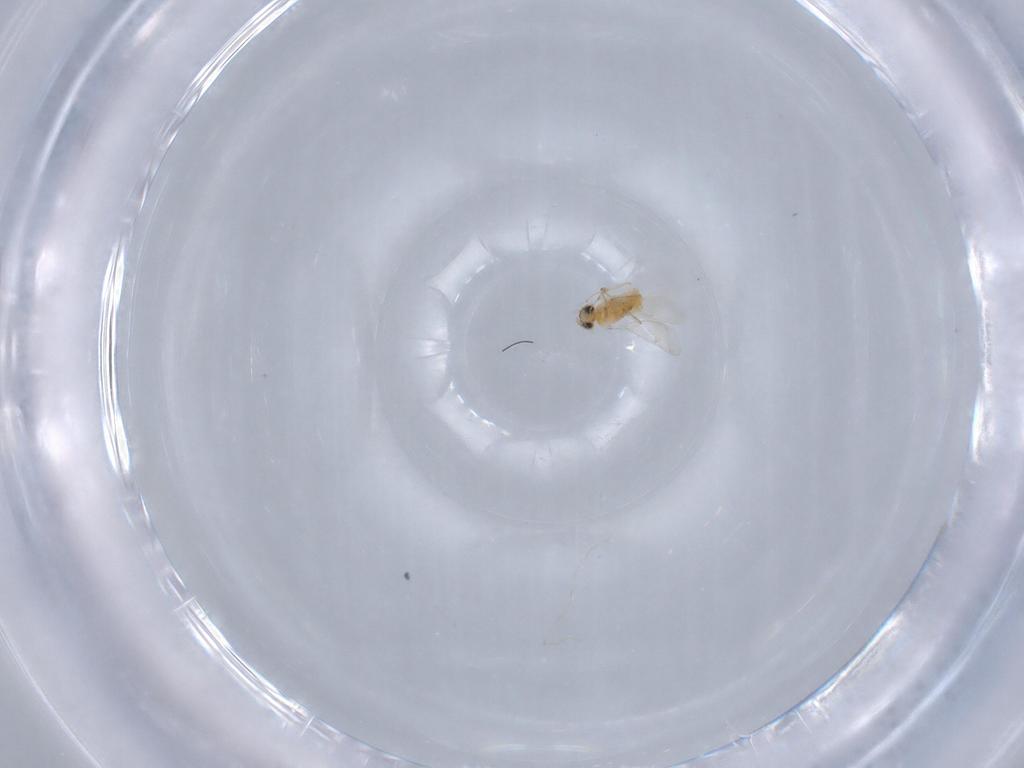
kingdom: Animalia
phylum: Arthropoda
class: Insecta
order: Hymenoptera
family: Aphelinidae
